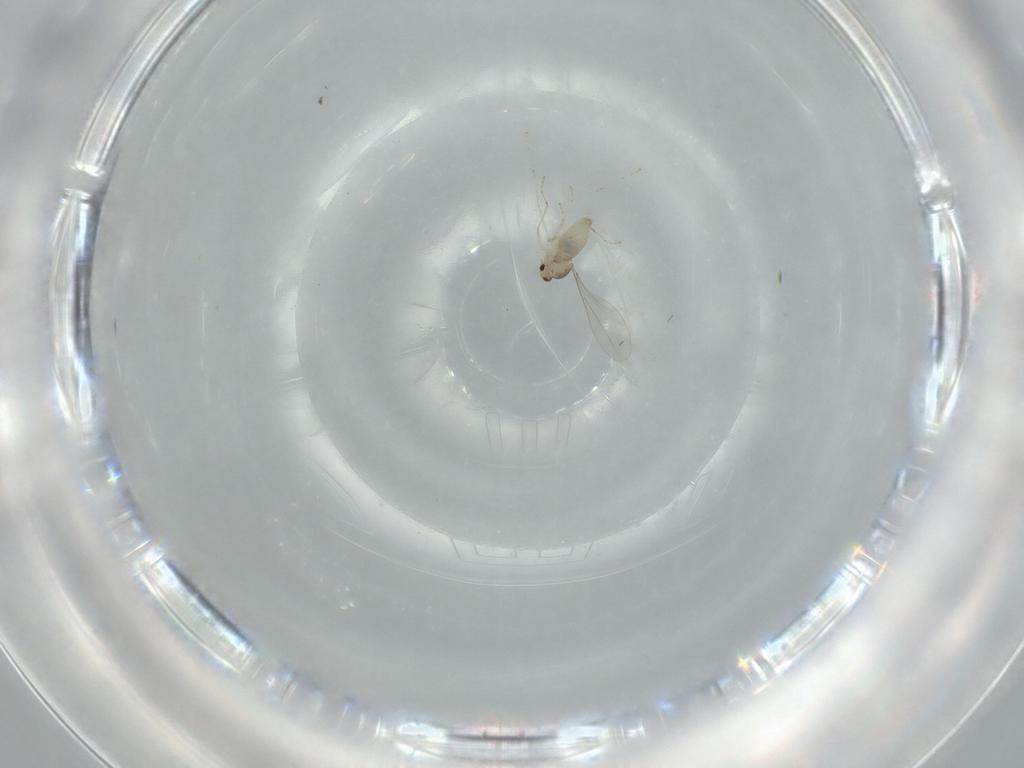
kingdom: Animalia
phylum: Arthropoda
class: Insecta
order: Diptera
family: Cecidomyiidae
